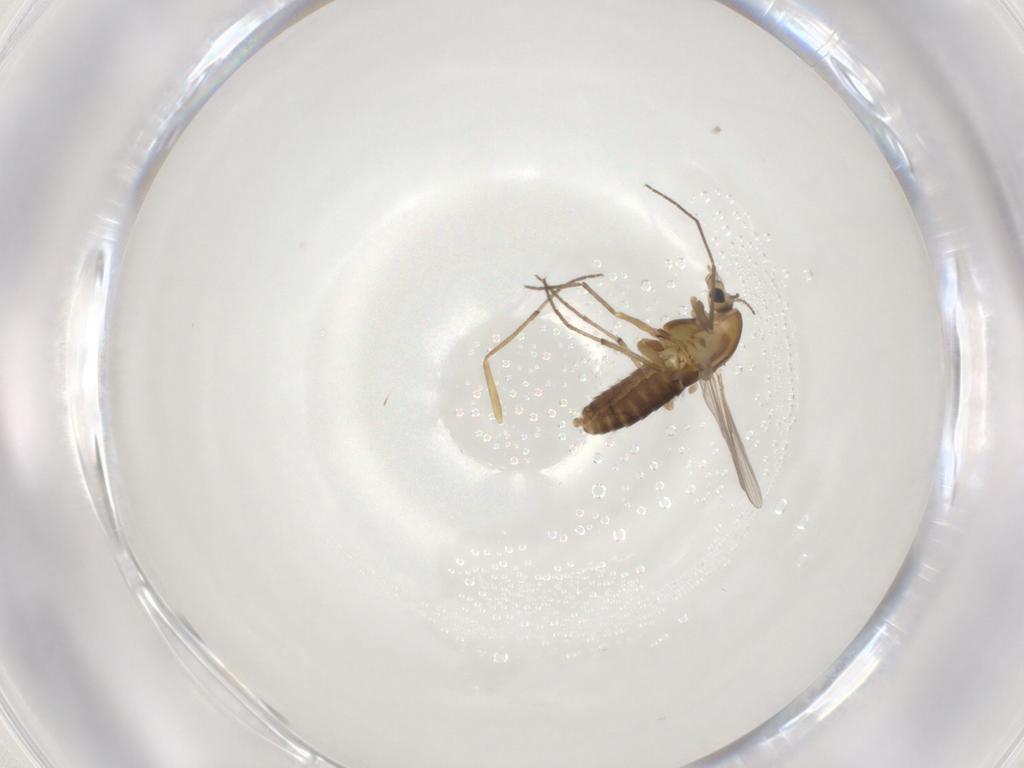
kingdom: Animalia
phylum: Arthropoda
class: Insecta
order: Diptera
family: Chironomidae
